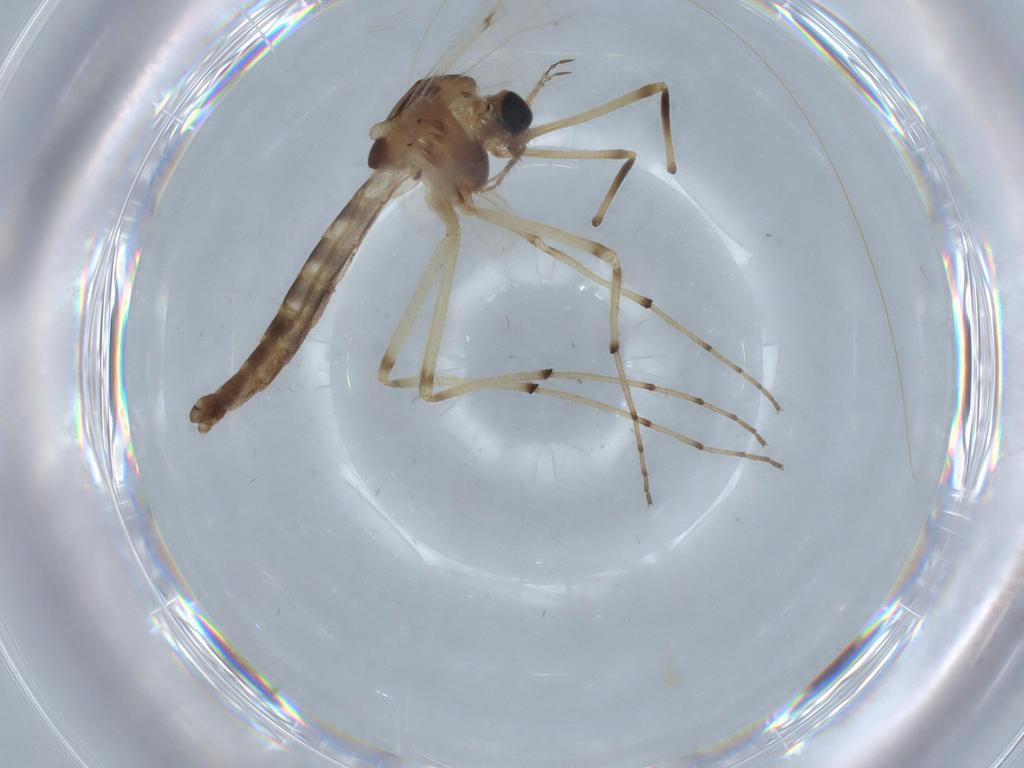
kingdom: Animalia
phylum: Arthropoda
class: Insecta
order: Diptera
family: Chironomidae
